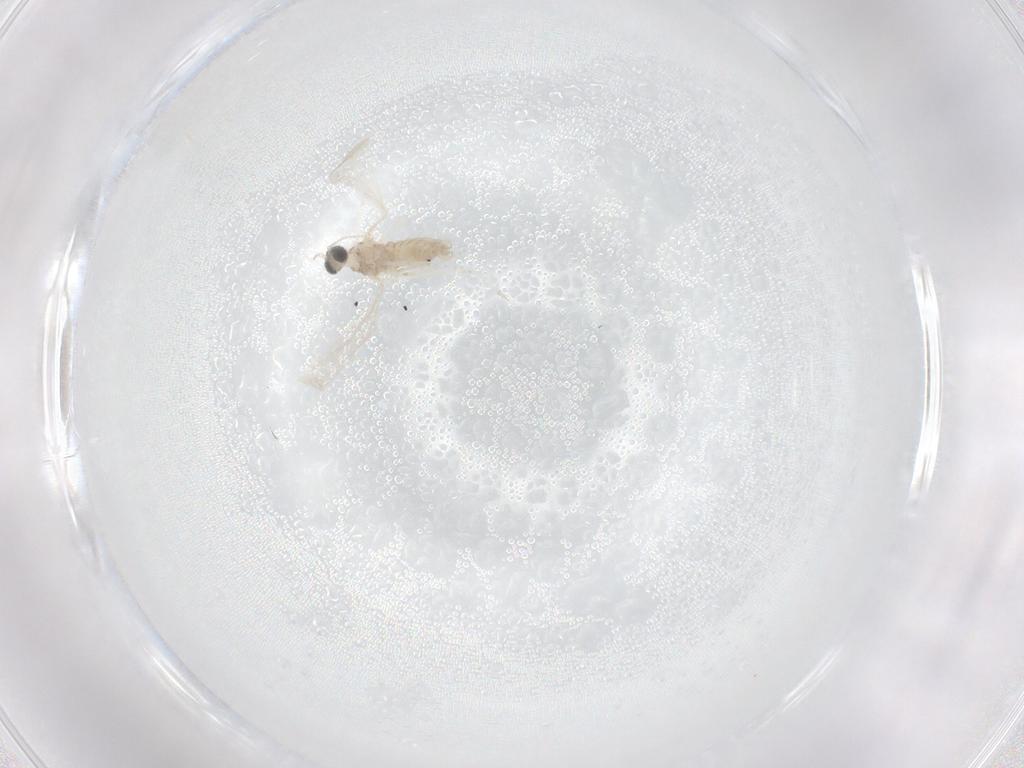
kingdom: Animalia
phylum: Arthropoda
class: Insecta
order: Diptera
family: Cecidomyiidae
